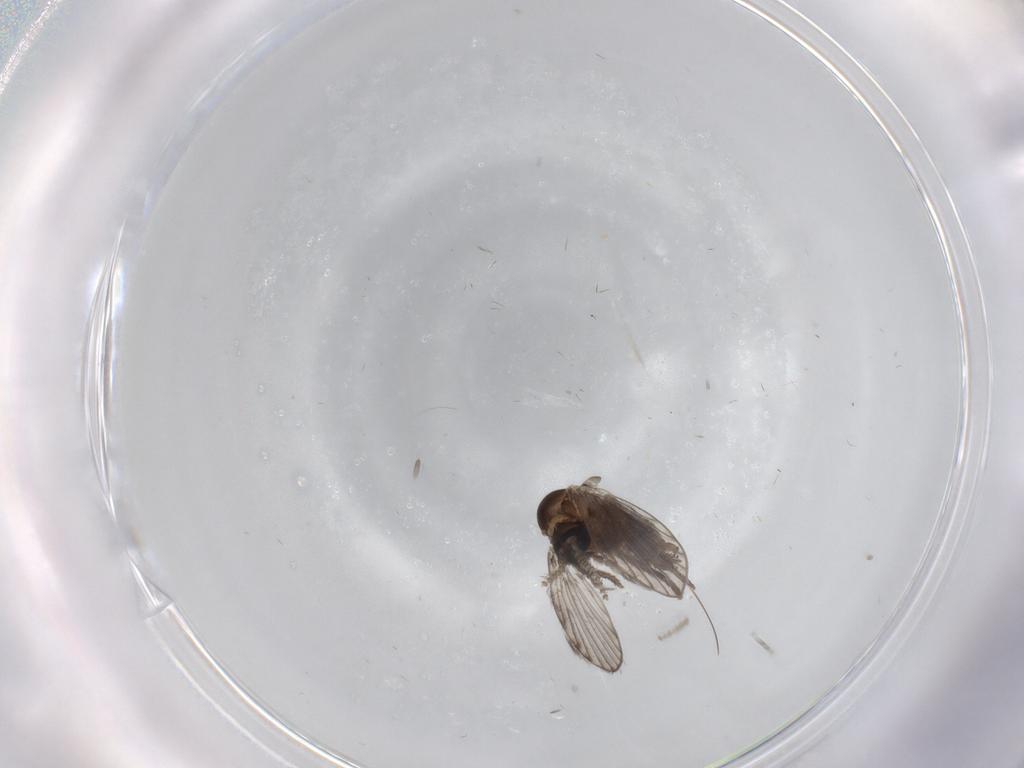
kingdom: Animalia
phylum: Arthropoda
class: Insecta
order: Diptera
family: Psychodidae
